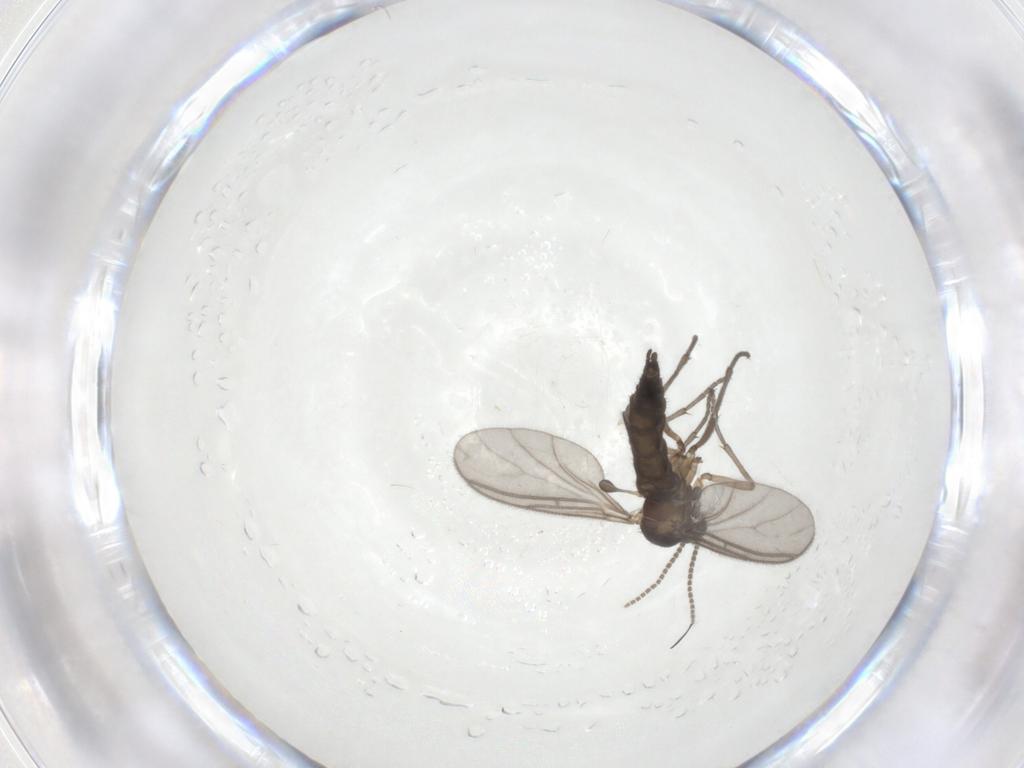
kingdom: Animalia
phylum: Arthropoda
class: Insecta
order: Diptera
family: Sciaridae
